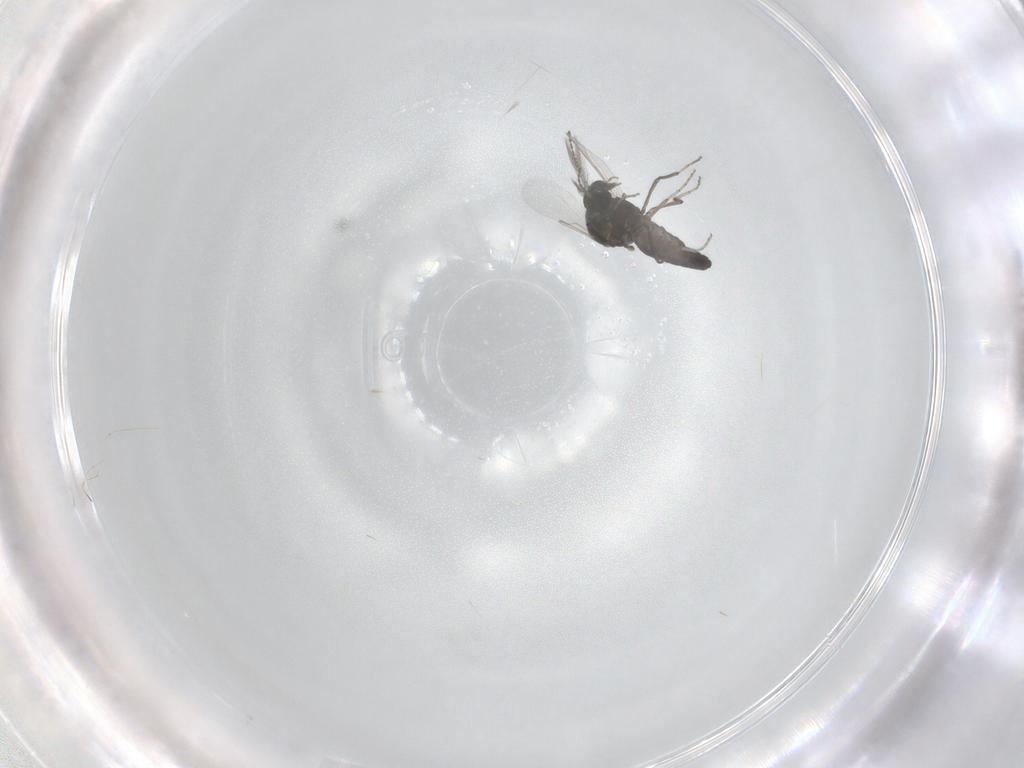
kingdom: Animalia
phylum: Arthropoda
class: Insecta
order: Diptera
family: Ceratopogonidae
